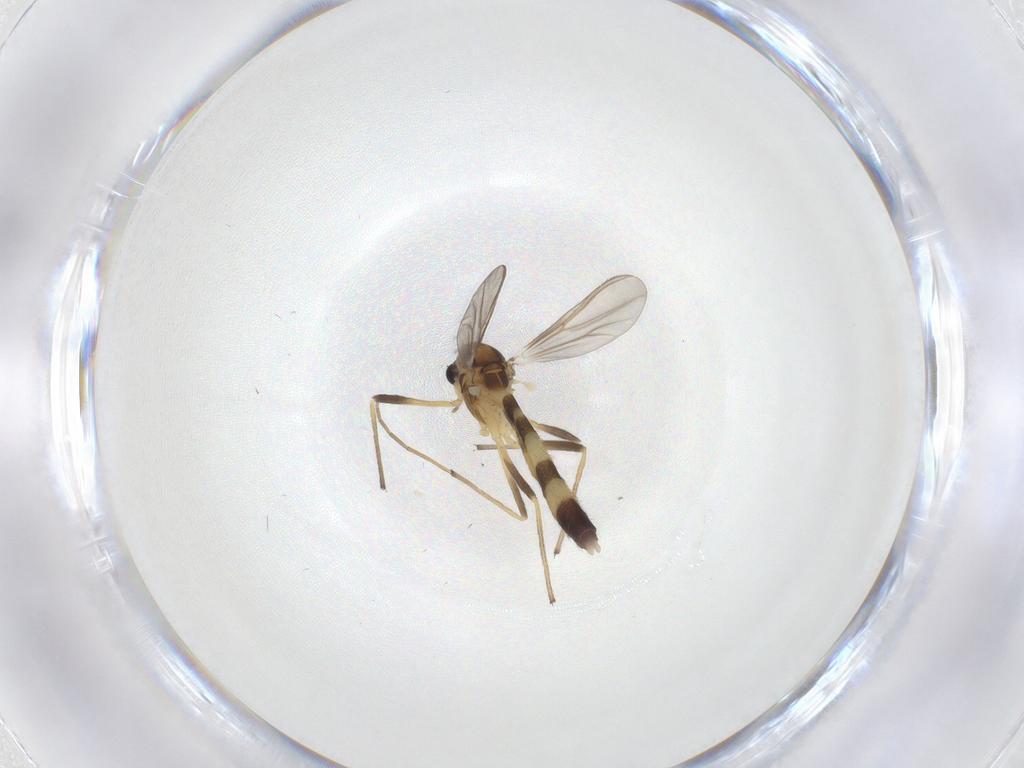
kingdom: Animalia
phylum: Arthropoda
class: Insecta
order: Diptera
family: Chironomidae
